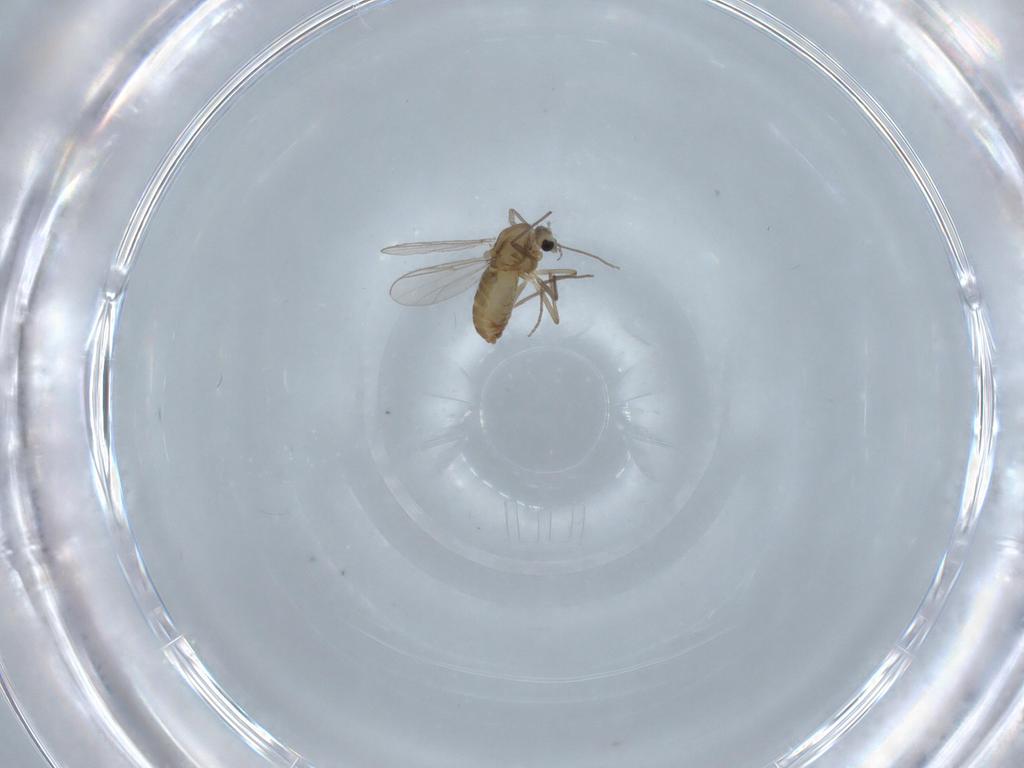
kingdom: Animalia
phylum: Arthropoda
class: Insecta
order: Diptera
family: Chironomidae
